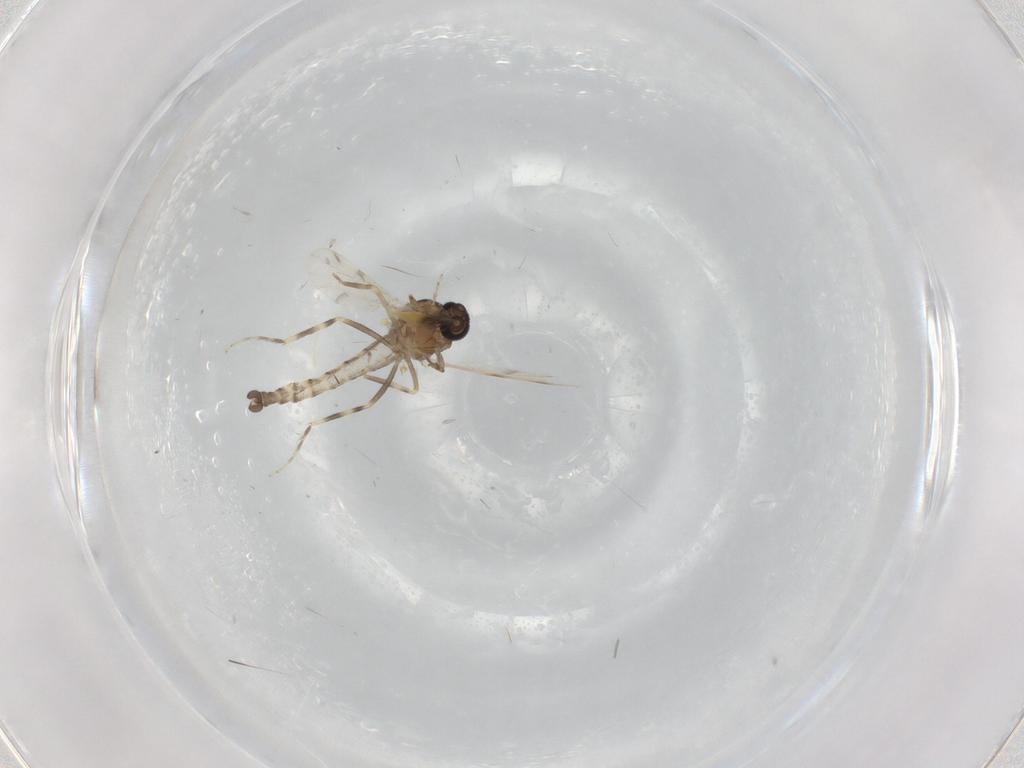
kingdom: Animalia
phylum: Arthropoda
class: Insecta
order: Diptera
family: Ceratopogonidae
